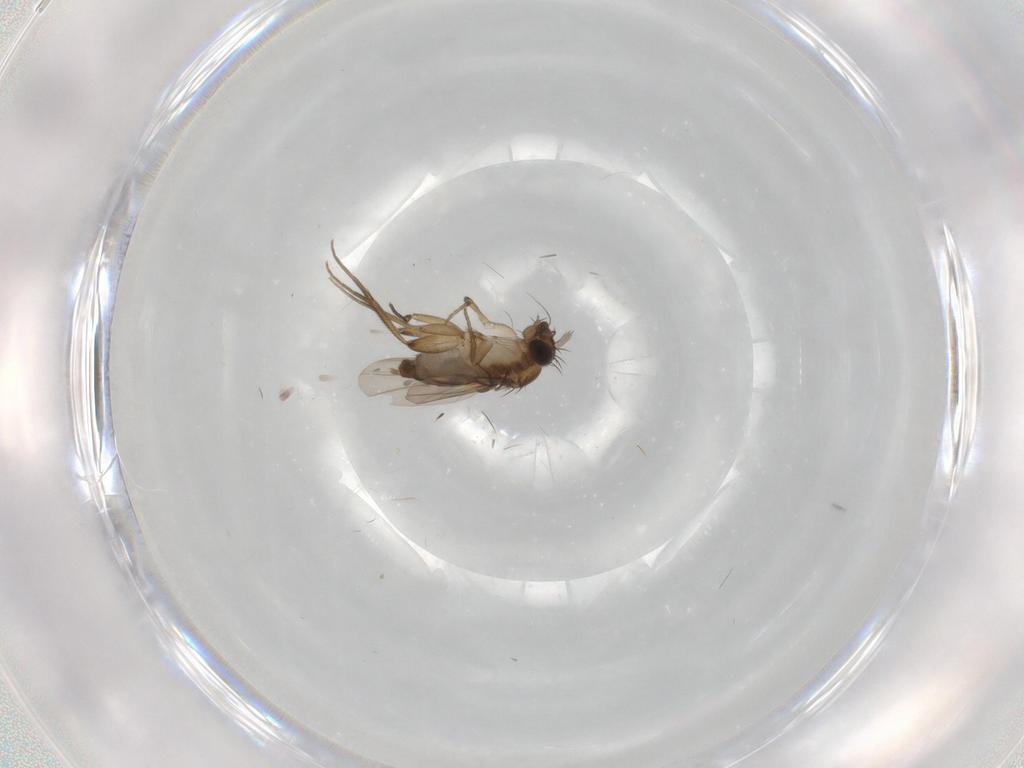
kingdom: Animalia
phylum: Arthropoda
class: Insecta
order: Diptera
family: Phoridae
